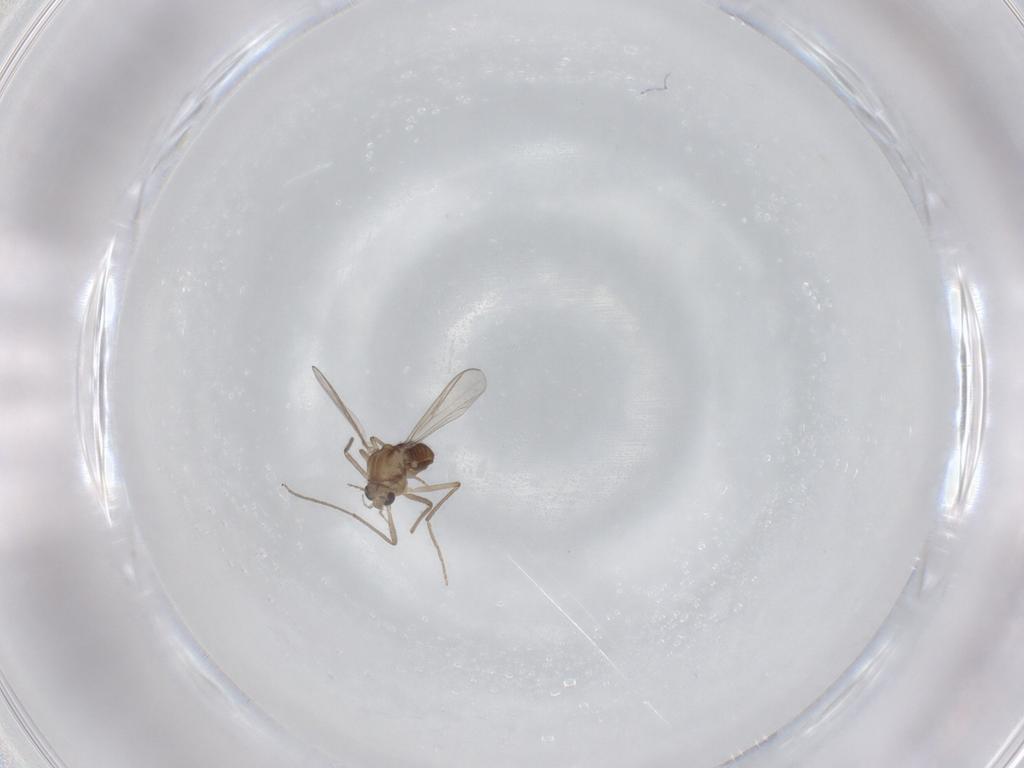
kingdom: Animalia
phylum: Arthropoda
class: Insecta
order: Diptera
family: Chironomidae
